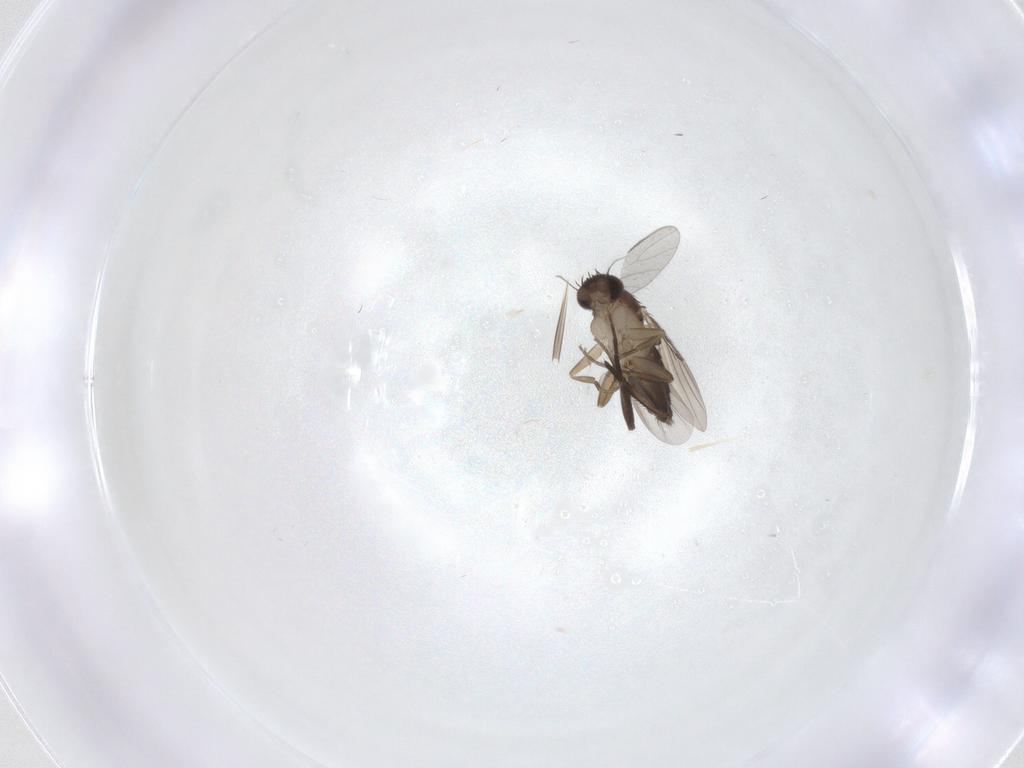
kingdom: Animalia
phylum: Arthropoda
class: Insecta
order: Diptera
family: Phoridae
